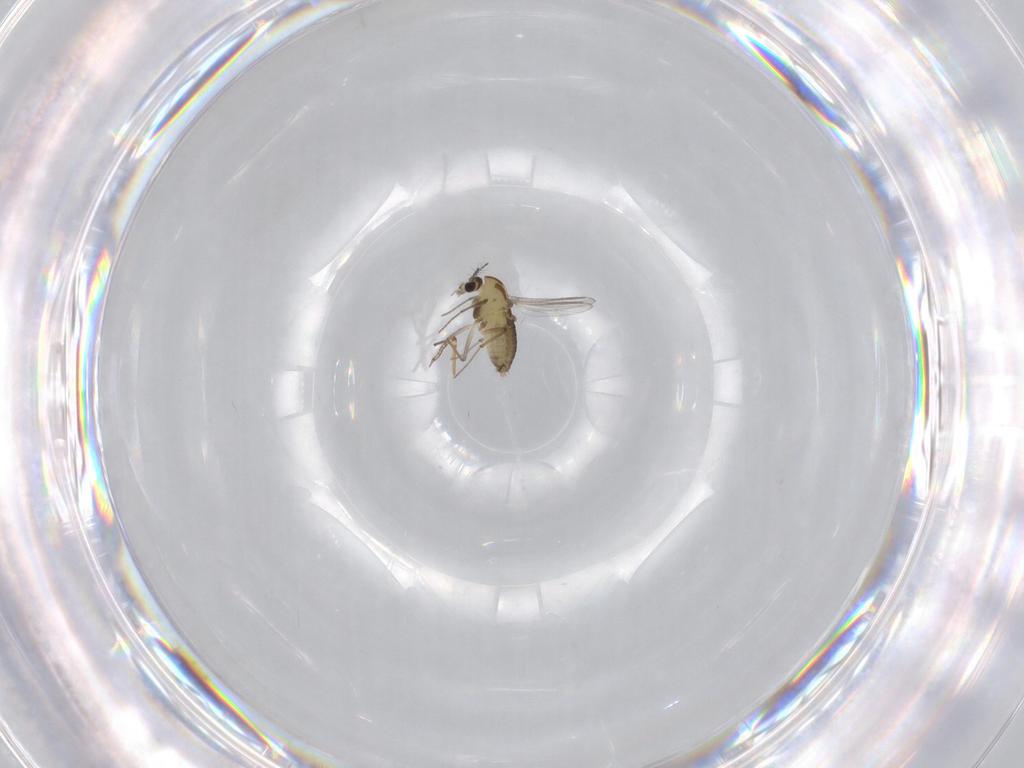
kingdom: Animalia
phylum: Arthropoda
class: Insecta
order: Diptera
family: Chironomidae
